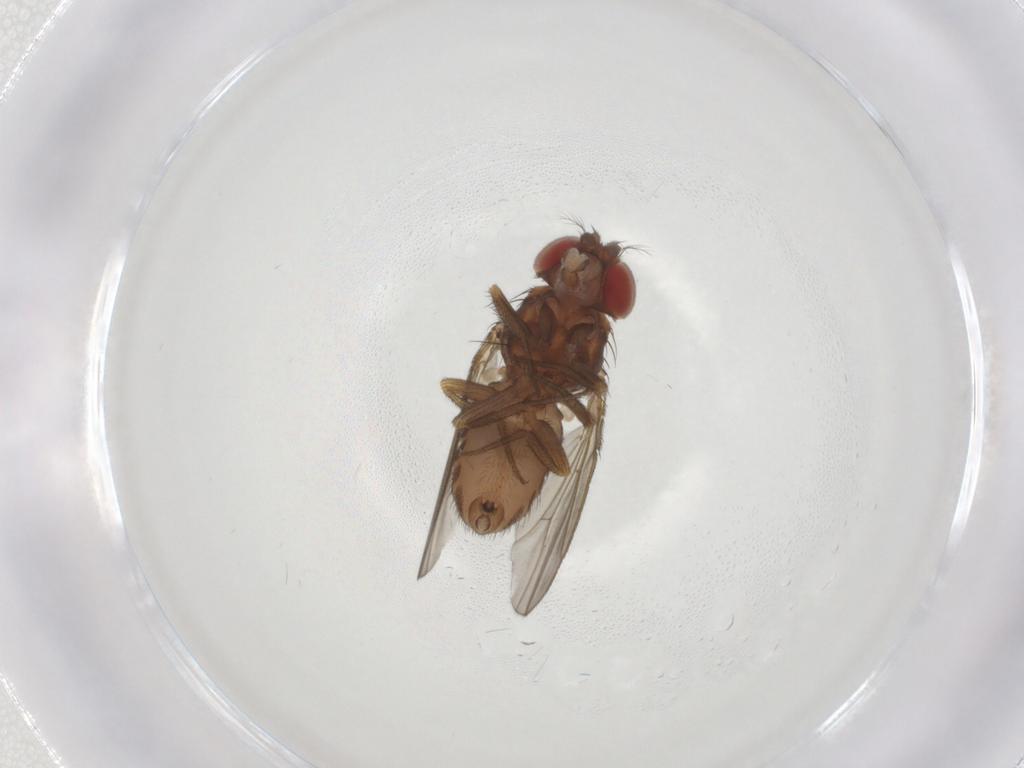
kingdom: Animalia
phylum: Arthropoda
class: Insecta
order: Diptera
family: Drosophilidae
